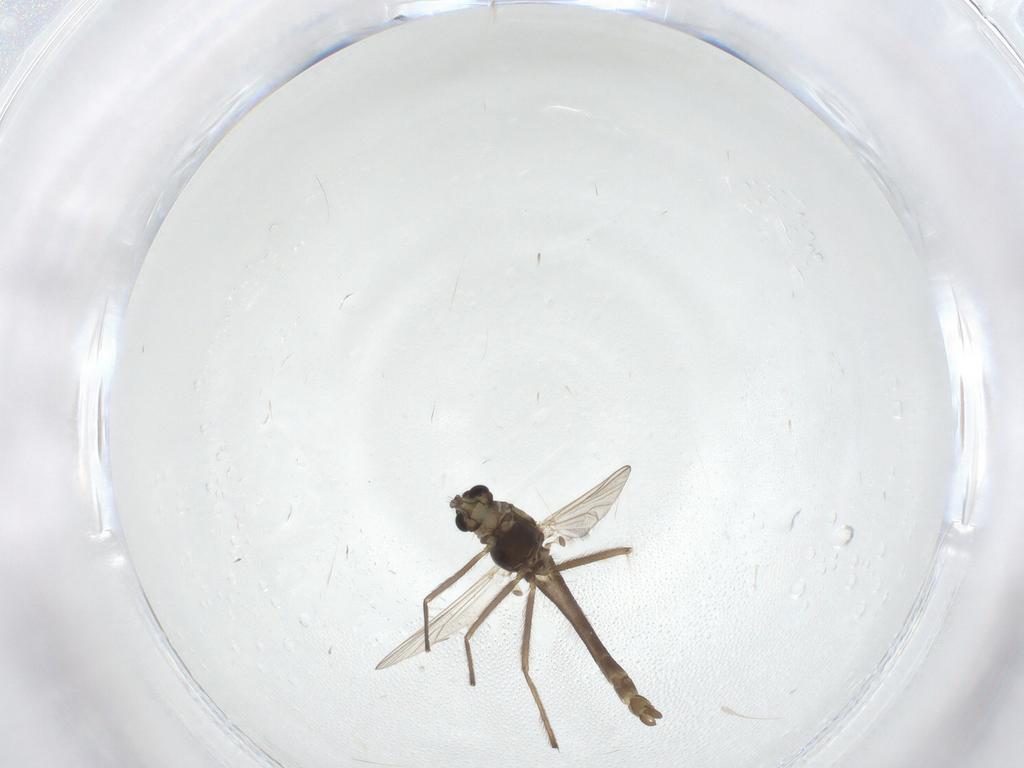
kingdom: Animalia
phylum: Arthropoda
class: Insecta
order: Diptera
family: Chironomidae
